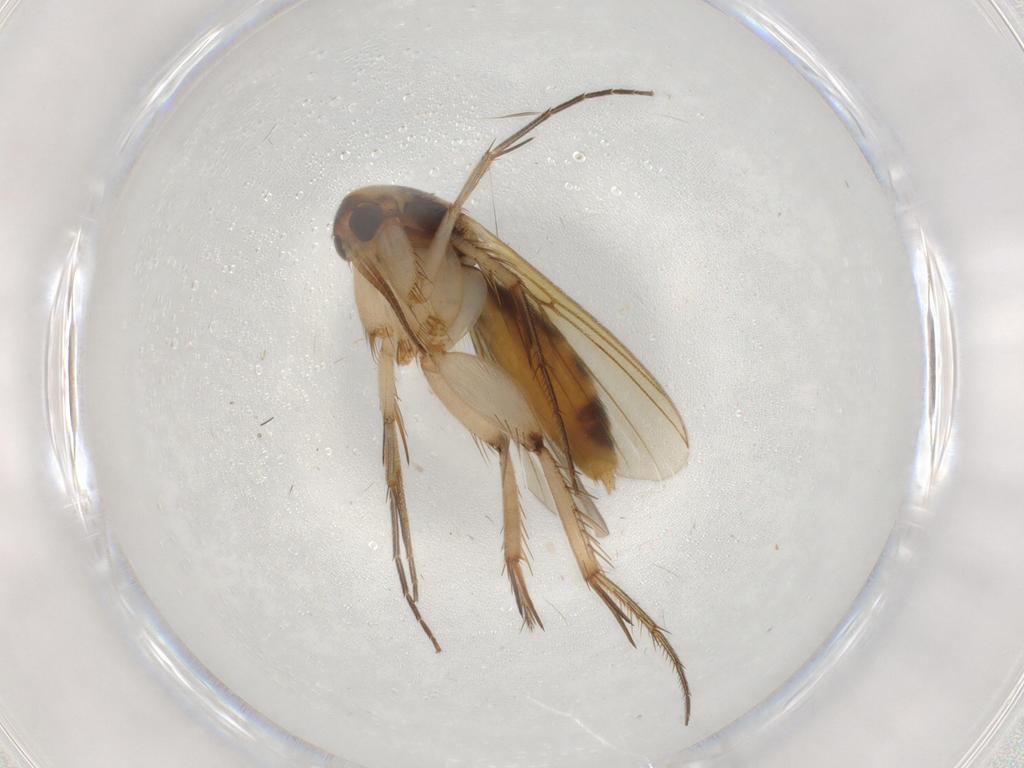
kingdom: Animalia
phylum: Arthropoda
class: Insecta
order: Diptera
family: Mycetophilidae
